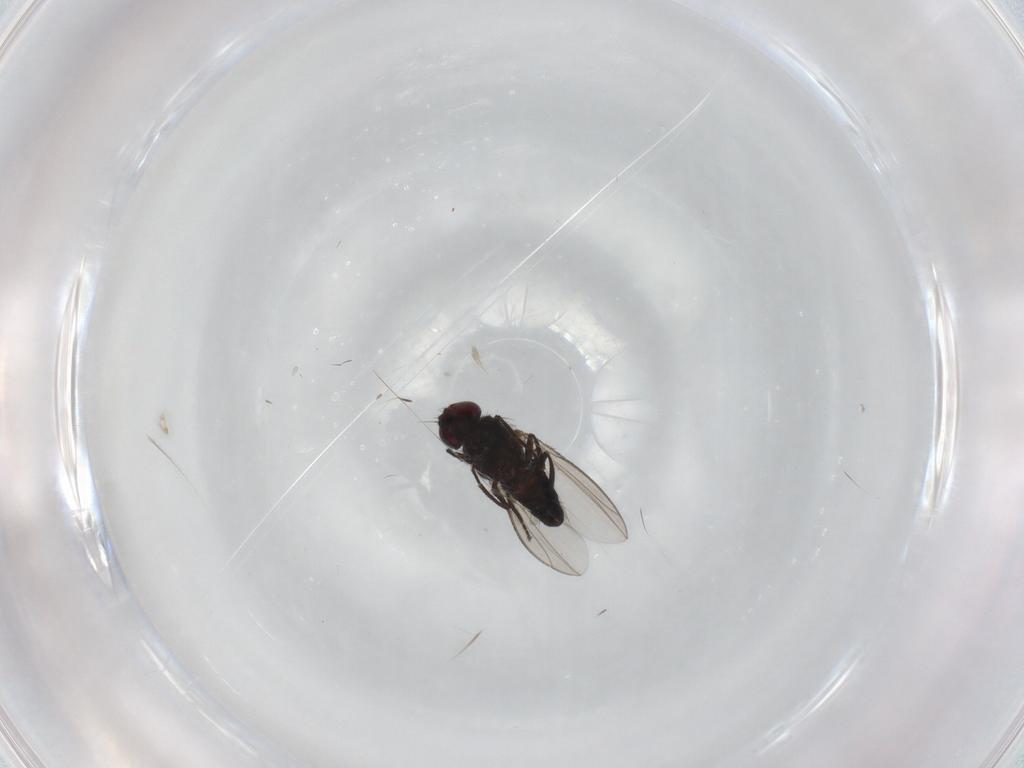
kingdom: Animalia
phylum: Arthropoda
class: Insecta
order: Diptera
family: Carnidae
